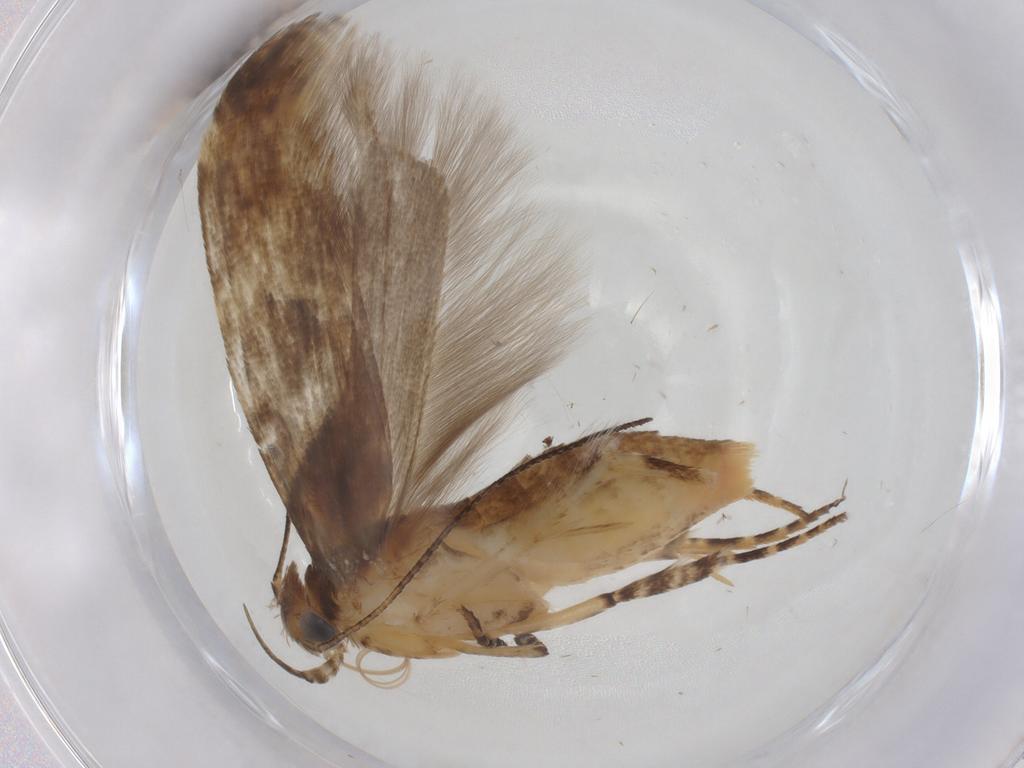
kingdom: Animalia
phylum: Arthropoda
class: Insecta
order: Lepidoptera
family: Gelechiidae
